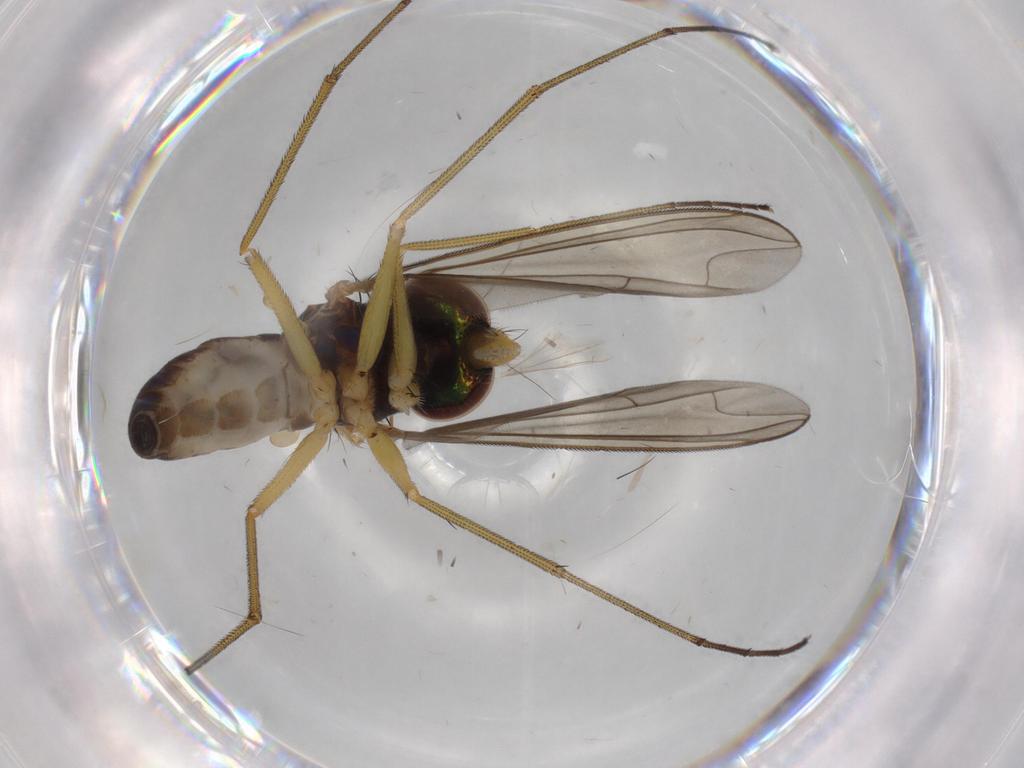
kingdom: Animalia
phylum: Arthropoda
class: Insecta
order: Diptera
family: Dolichopodidae
